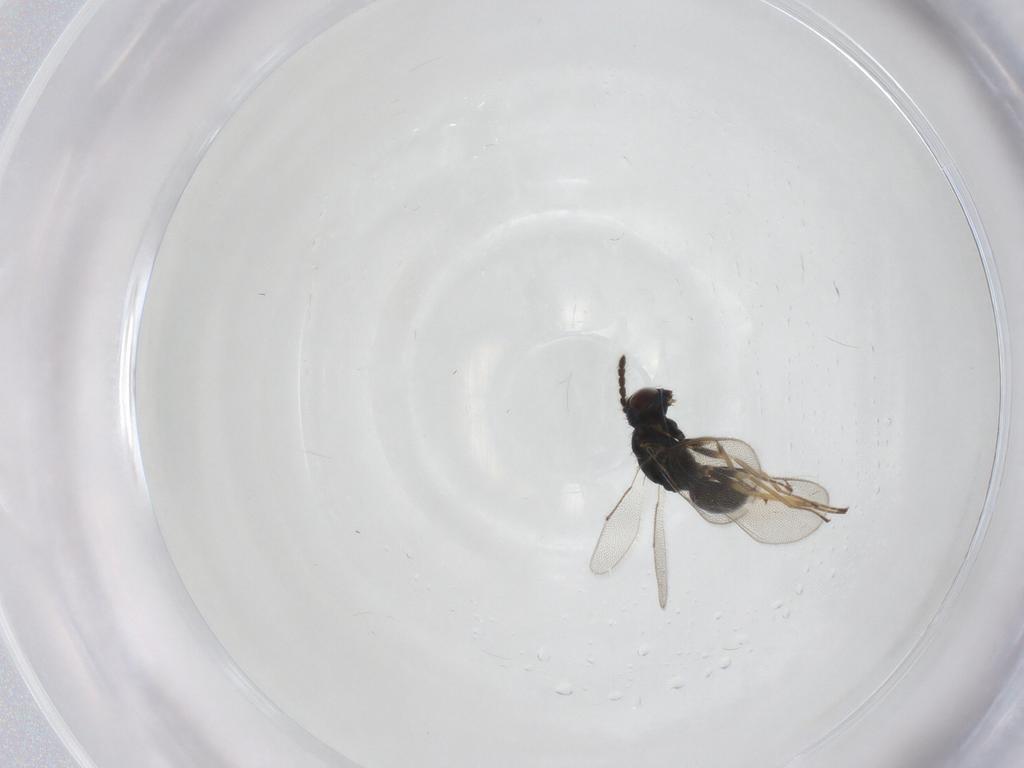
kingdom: Animalia
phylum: Arthropoda
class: Insecta
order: Hymenoptera
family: Eulophidae
